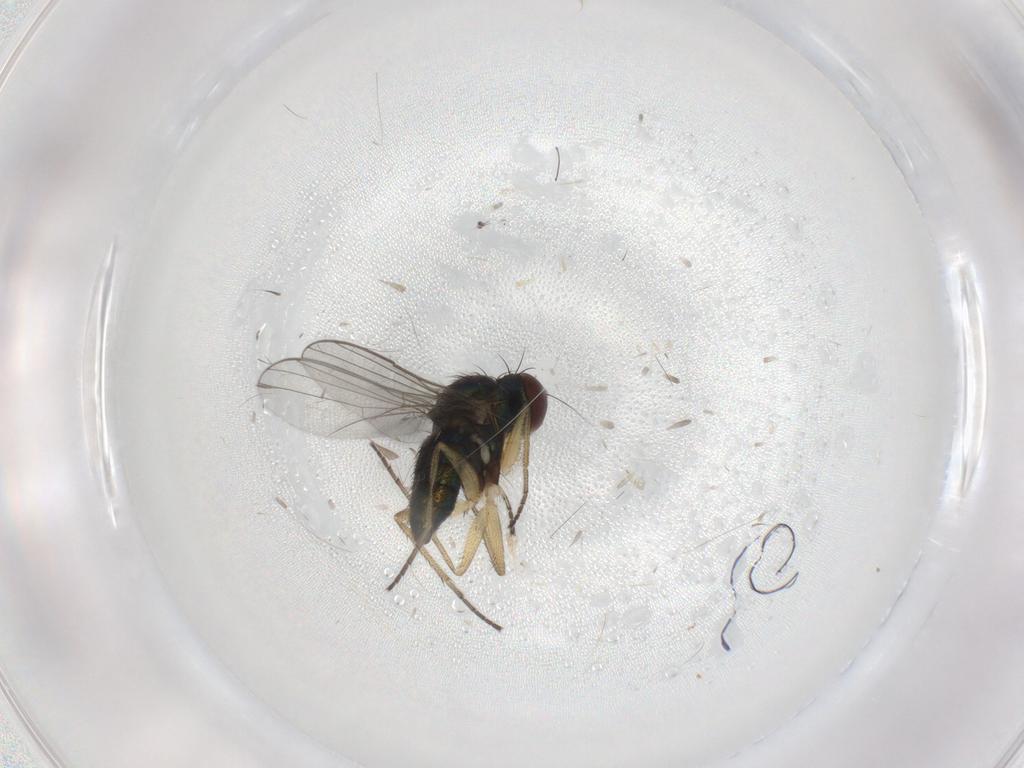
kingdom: Animalia
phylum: Arthropoda
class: Insecta
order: Diptera
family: Dolichopodidae
